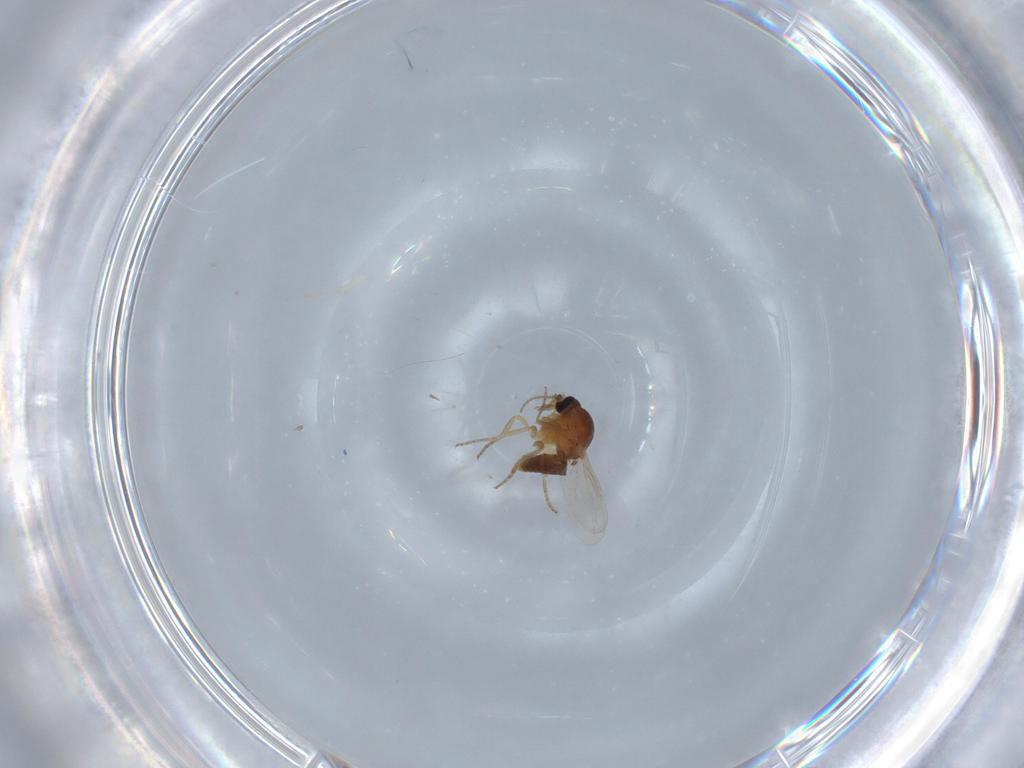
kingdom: Animalia
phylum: Arthropoda
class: Insecta
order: Diptera
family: Ceratopogonidae
